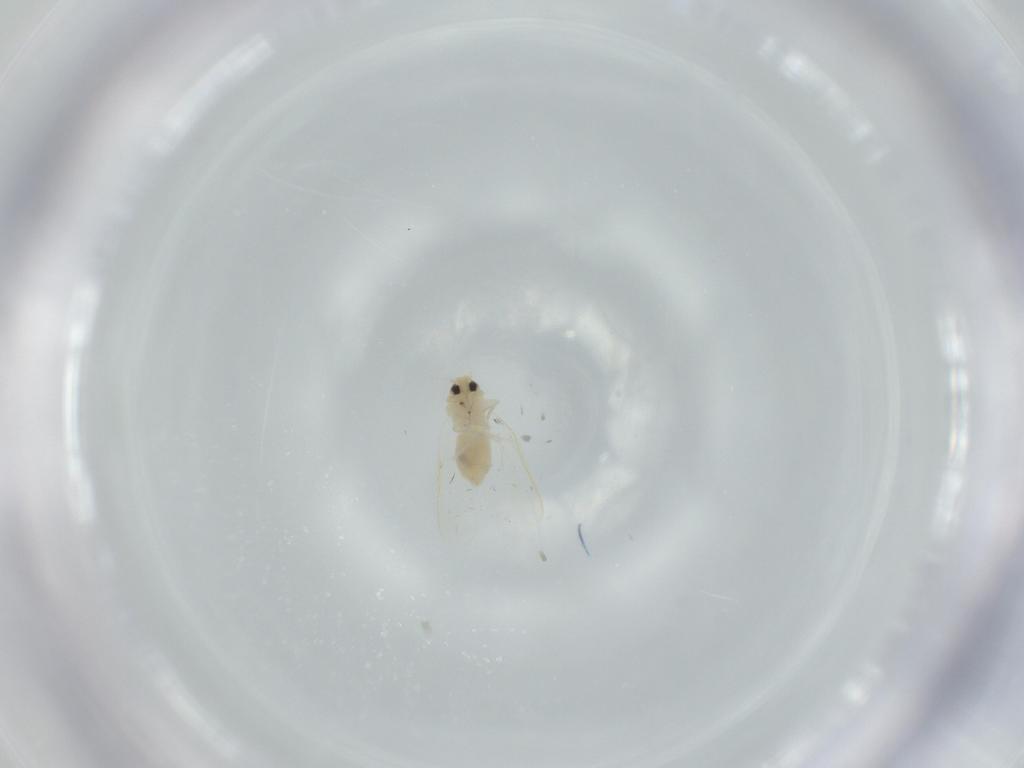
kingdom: Animalia
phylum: Arthropoda
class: Insecta
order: Hemiptera
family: Aleyrodidae
